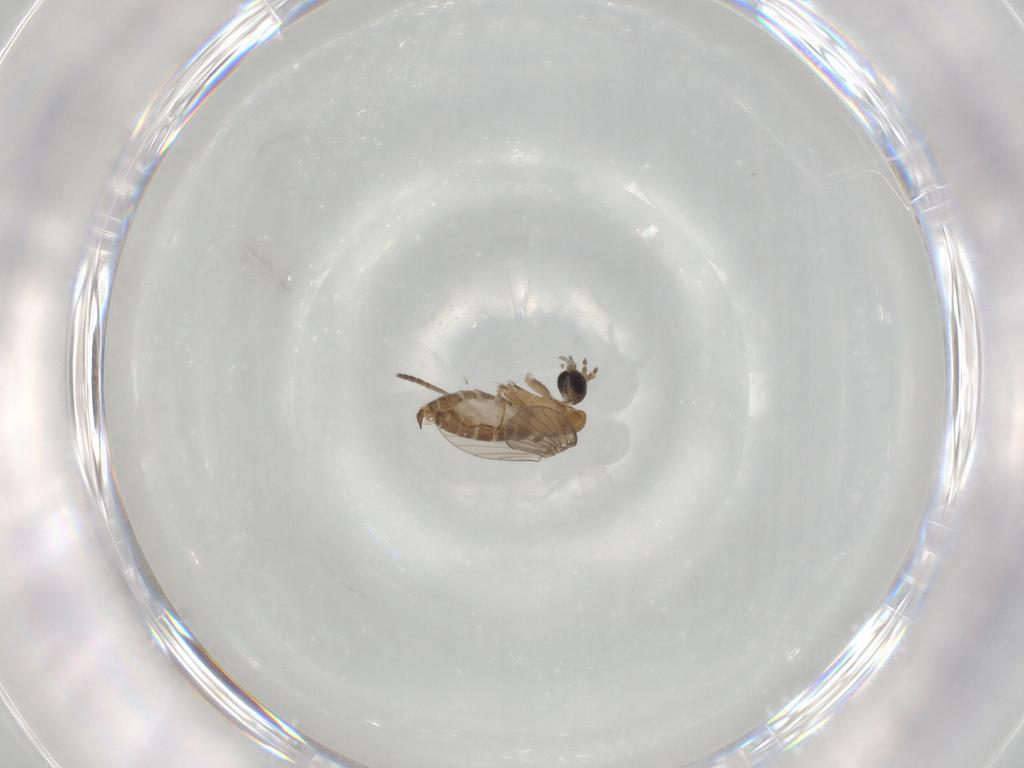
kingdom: Animalia
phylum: Arthropoda
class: Insecta
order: Diptera
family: Psychodidae
